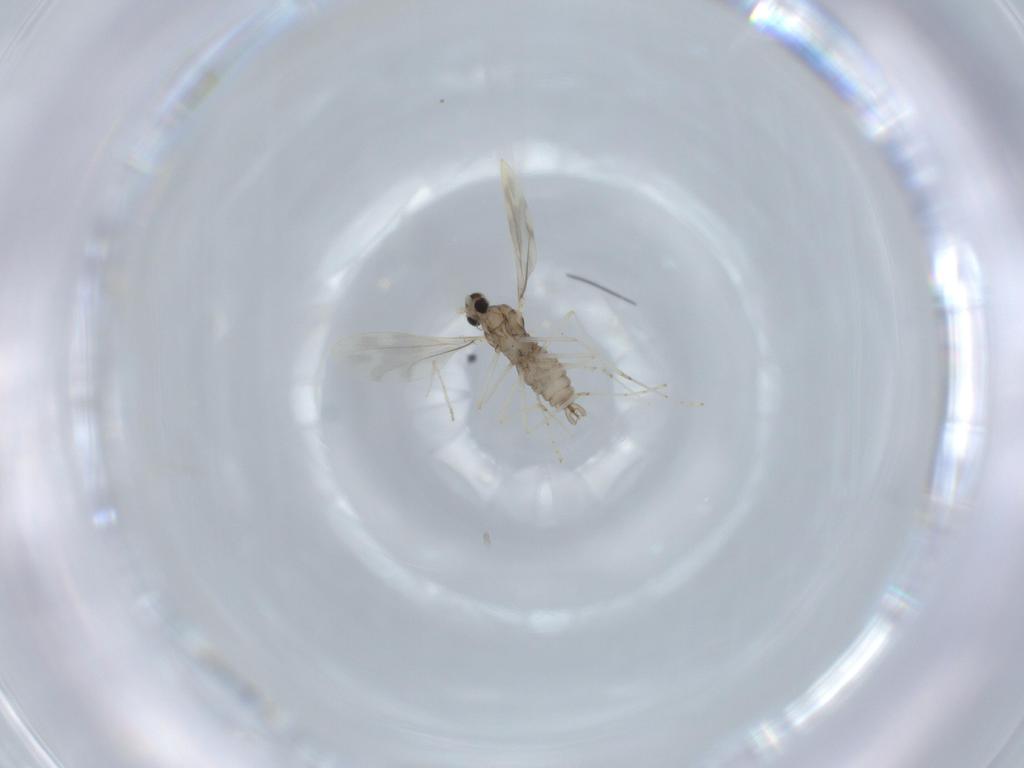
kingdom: Animalia
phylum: Arthropoda
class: Insecta
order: Diptera
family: Cecidomyiidae
